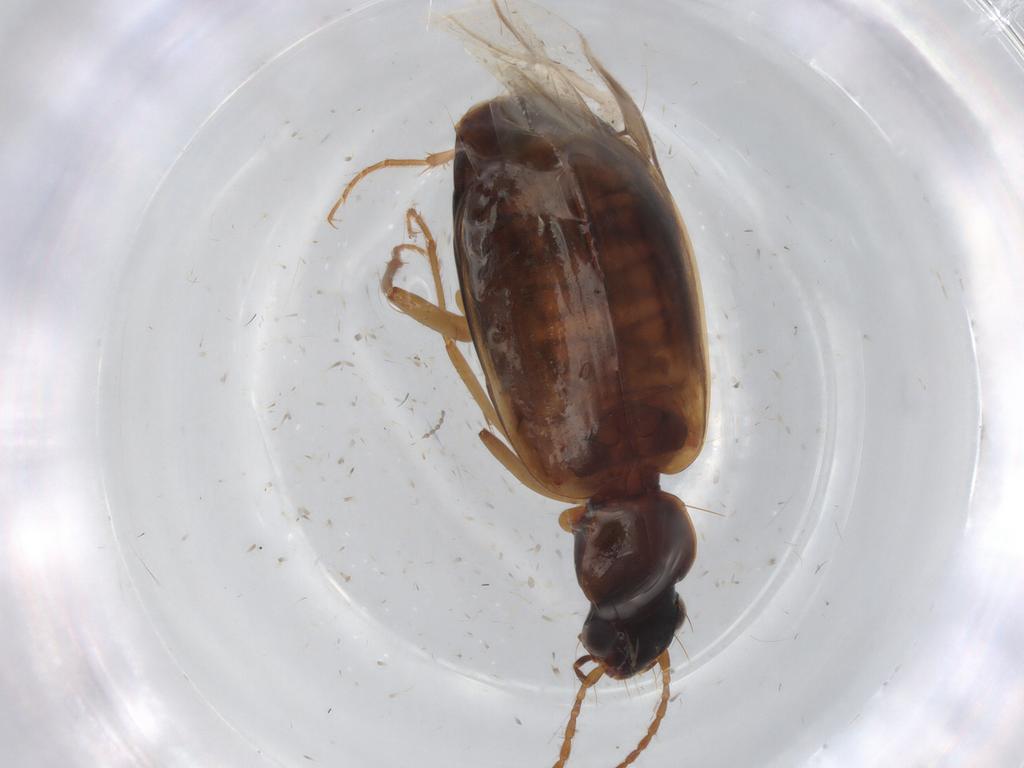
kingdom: Animalia
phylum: Arthropoda
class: Insecta
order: Coleoptera
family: Carabidae
